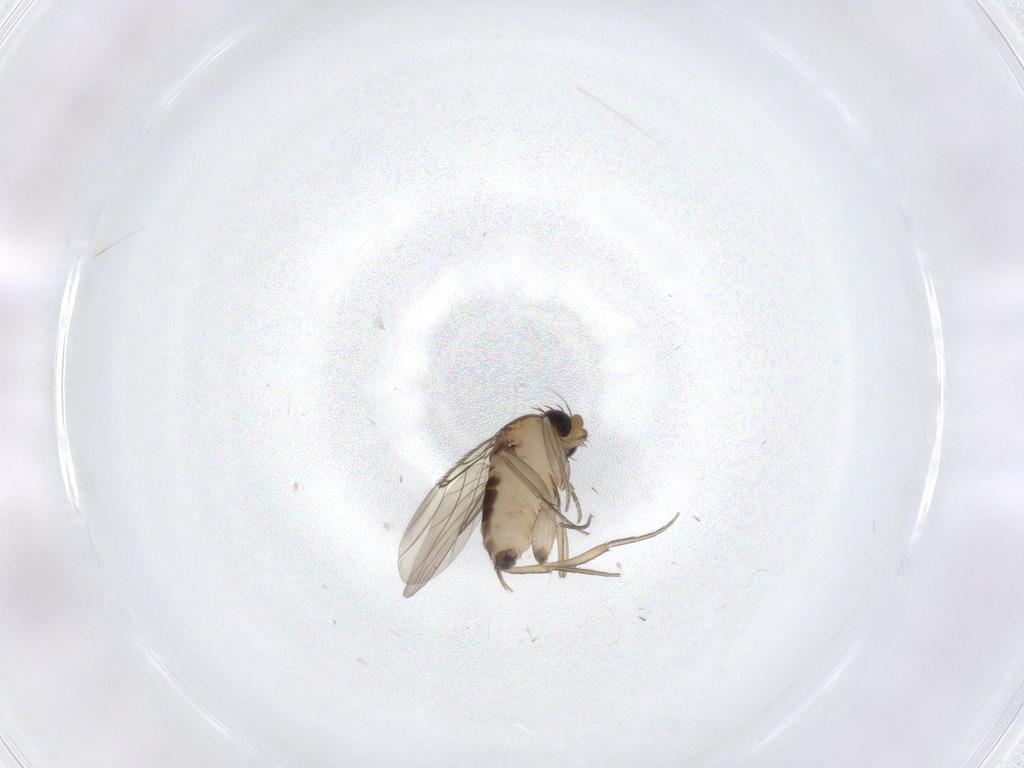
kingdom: Animalia
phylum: Arthropoda
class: Insecta
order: Diptera
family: Phoridae
